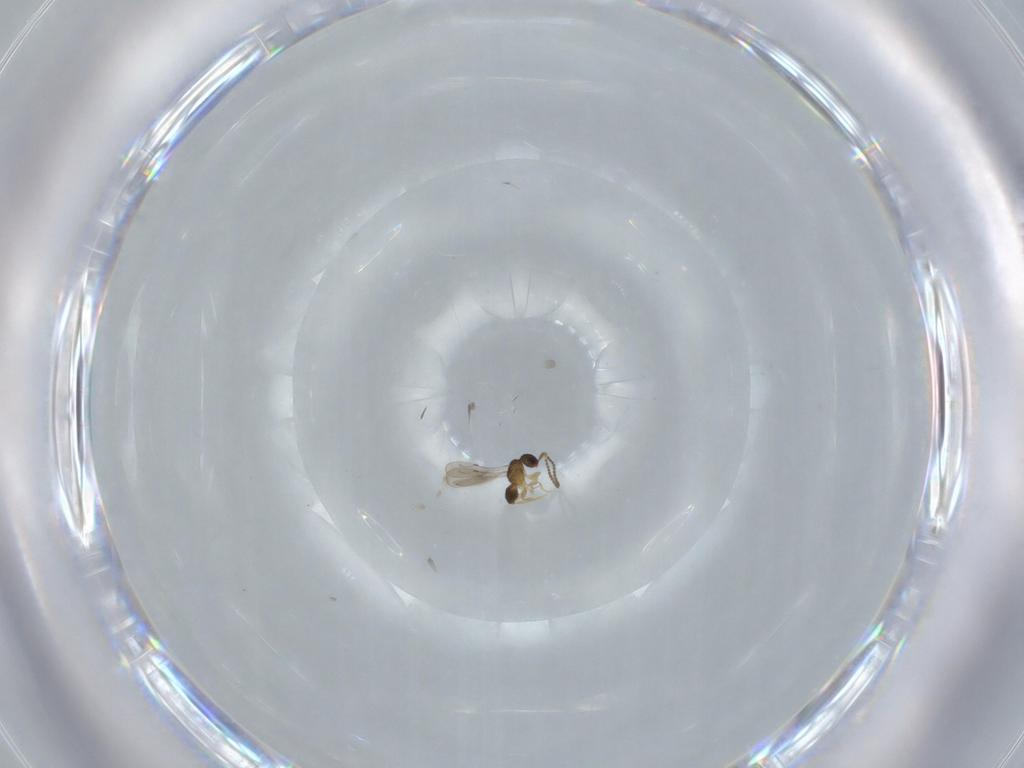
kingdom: Animalia
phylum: Arthropoda
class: Insecta
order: Hymenoptera
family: Ceraphronidae
